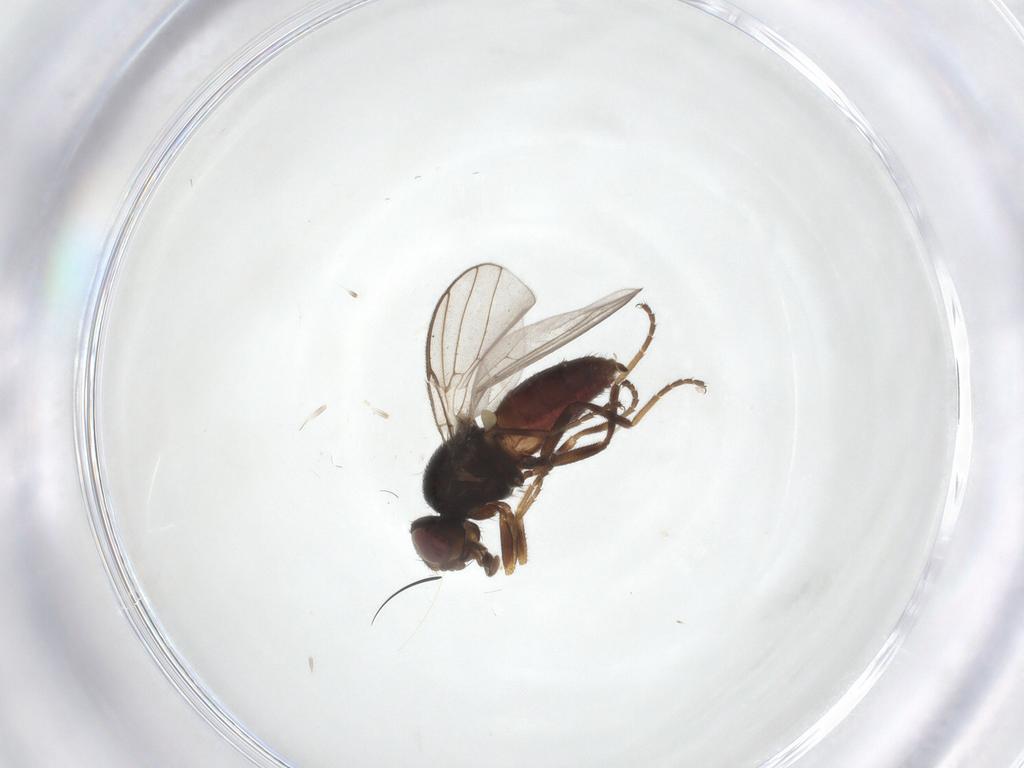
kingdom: Animalia
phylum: Arthropoda
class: Insecta
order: Diptera
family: Chloropidae
